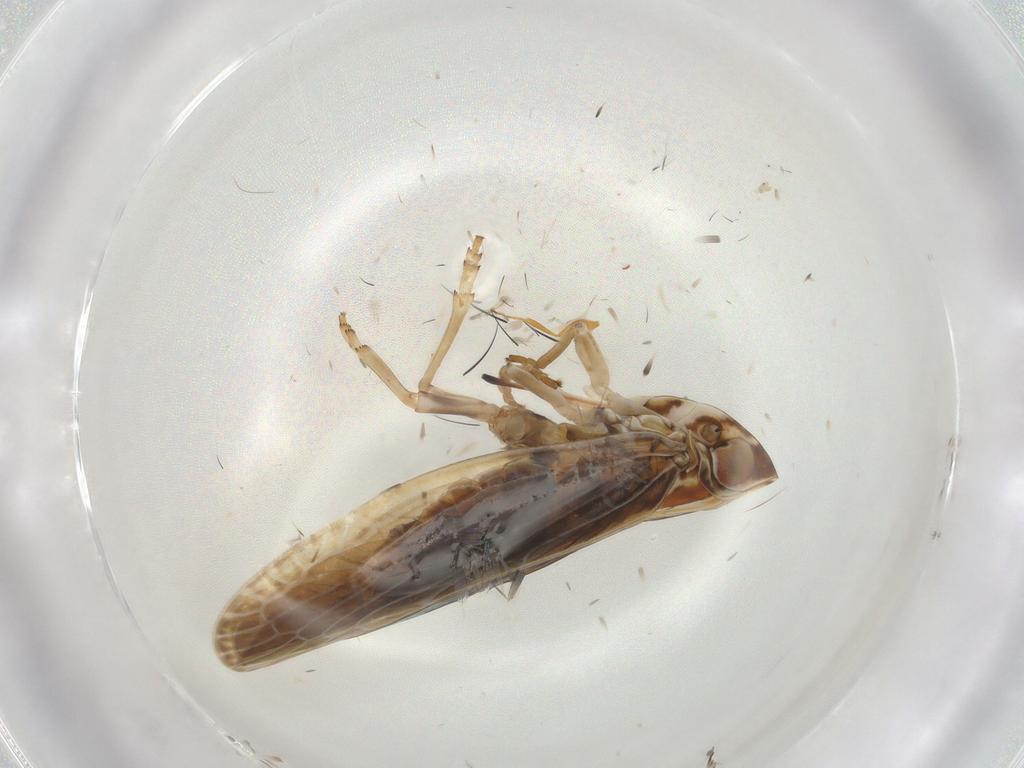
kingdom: Animalia
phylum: Arthropoda
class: Insecta
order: Hemiptera
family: Achilidae
